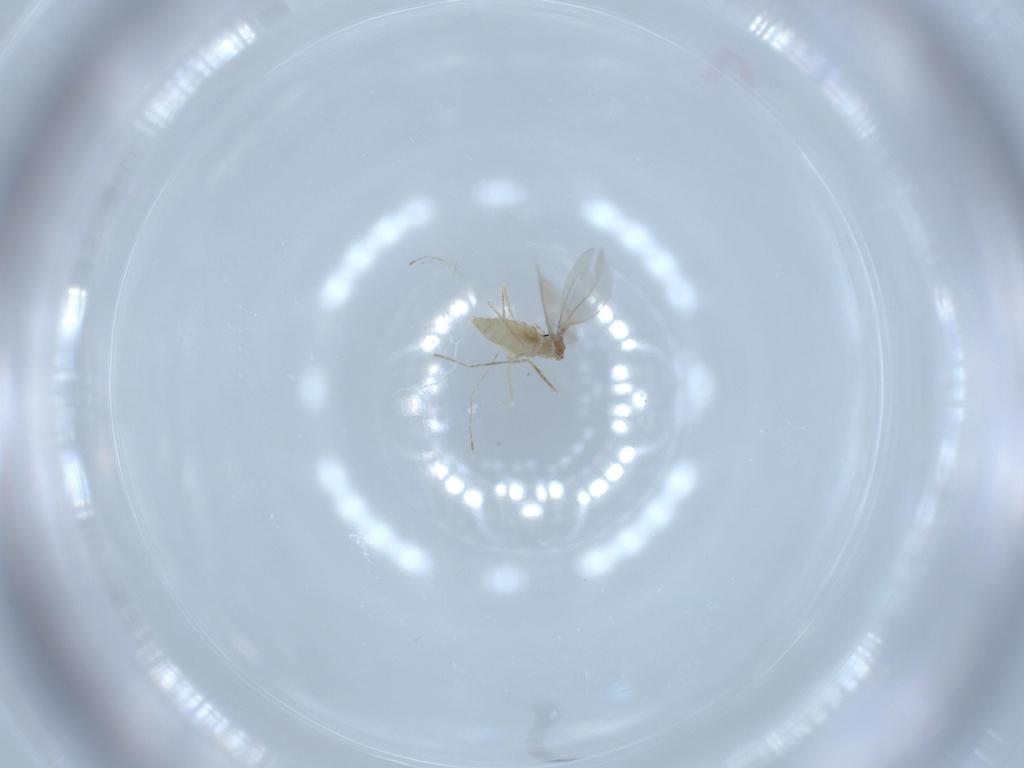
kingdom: Animalia
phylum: Arthropoda
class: Insecta
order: Diptera
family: Cecidomyiidae
